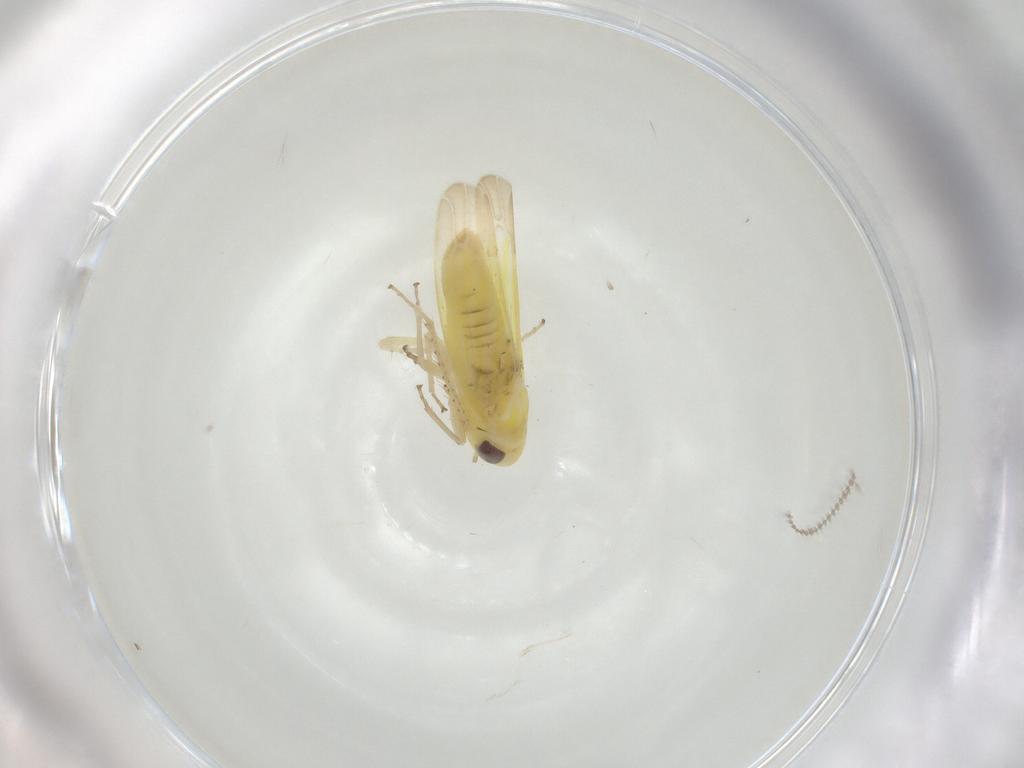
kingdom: Animalia
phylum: Arthropoda
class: Insecta
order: Hemiptera
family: Cicadellidae
